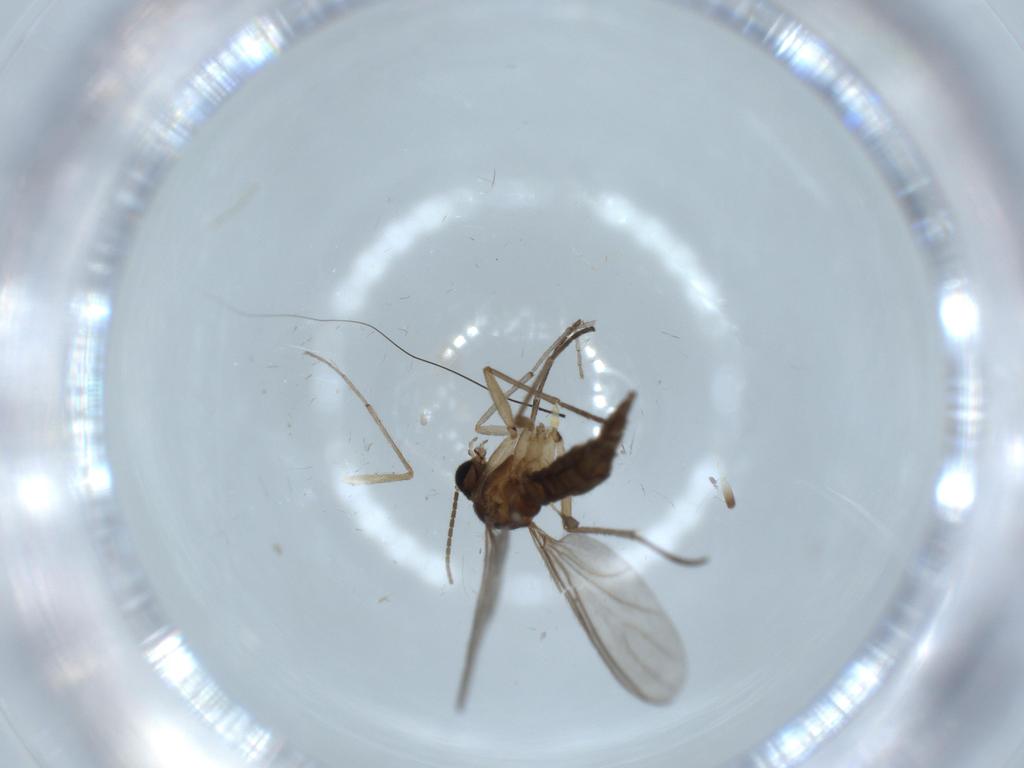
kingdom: Animalia
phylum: Arthropoda
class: Insecta
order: Diptera
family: Sciaridae
